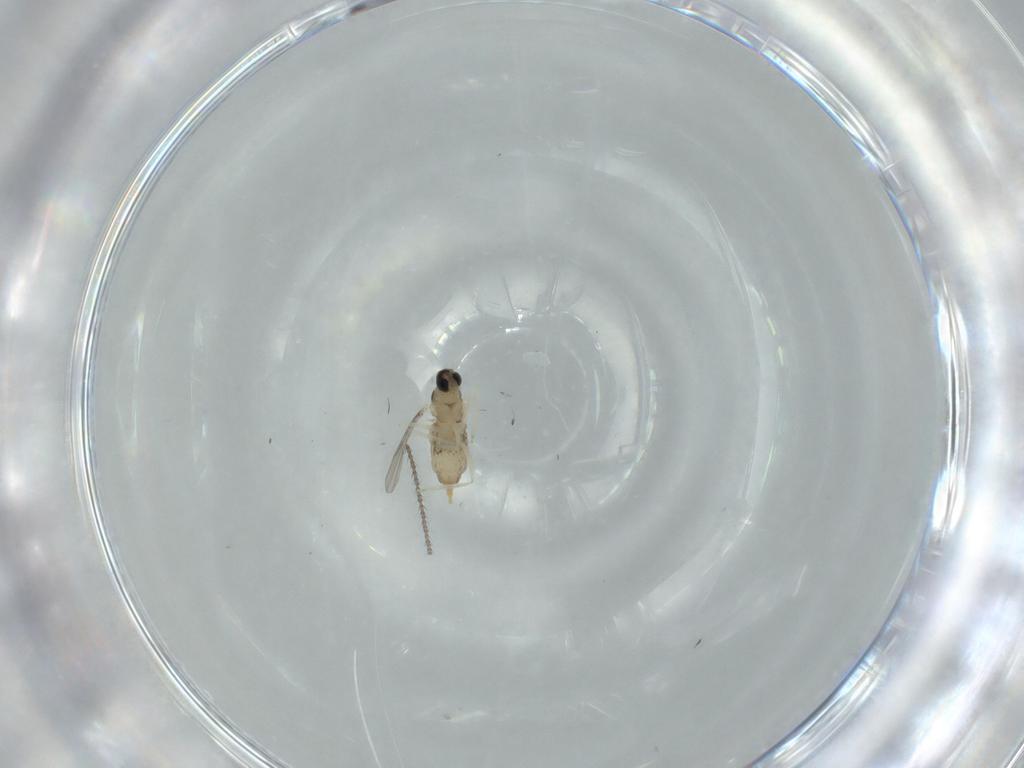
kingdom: Animalia
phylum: Arthropoda
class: Insecta
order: Diptera
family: Cecidomyiidae
